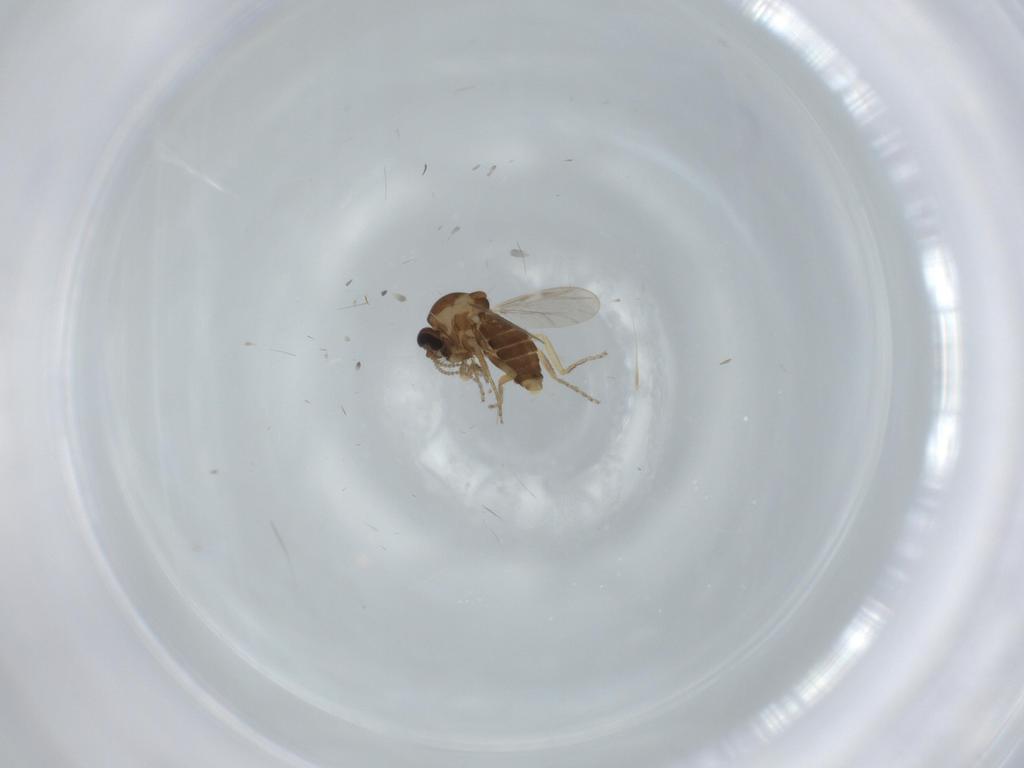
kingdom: Animalia
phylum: Arthropoda
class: Insecta
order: Diptera
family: Ceratopogonidae
